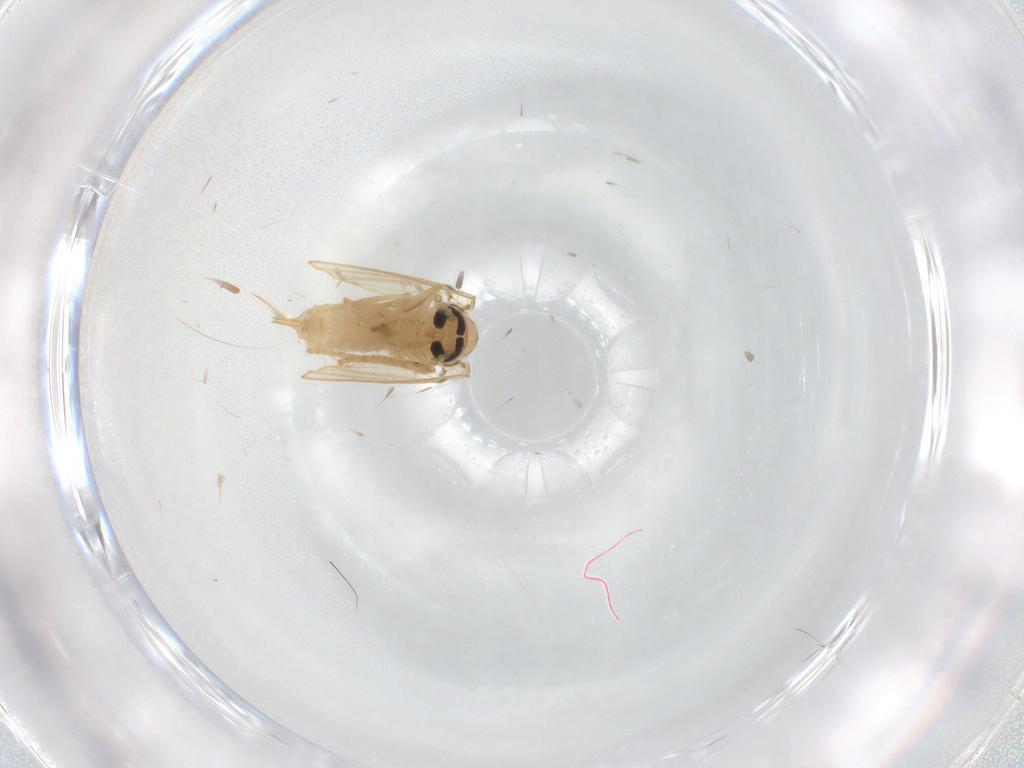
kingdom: Animalia
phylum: Arthropoda
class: Insecta
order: Diptera
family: Psychodidae
